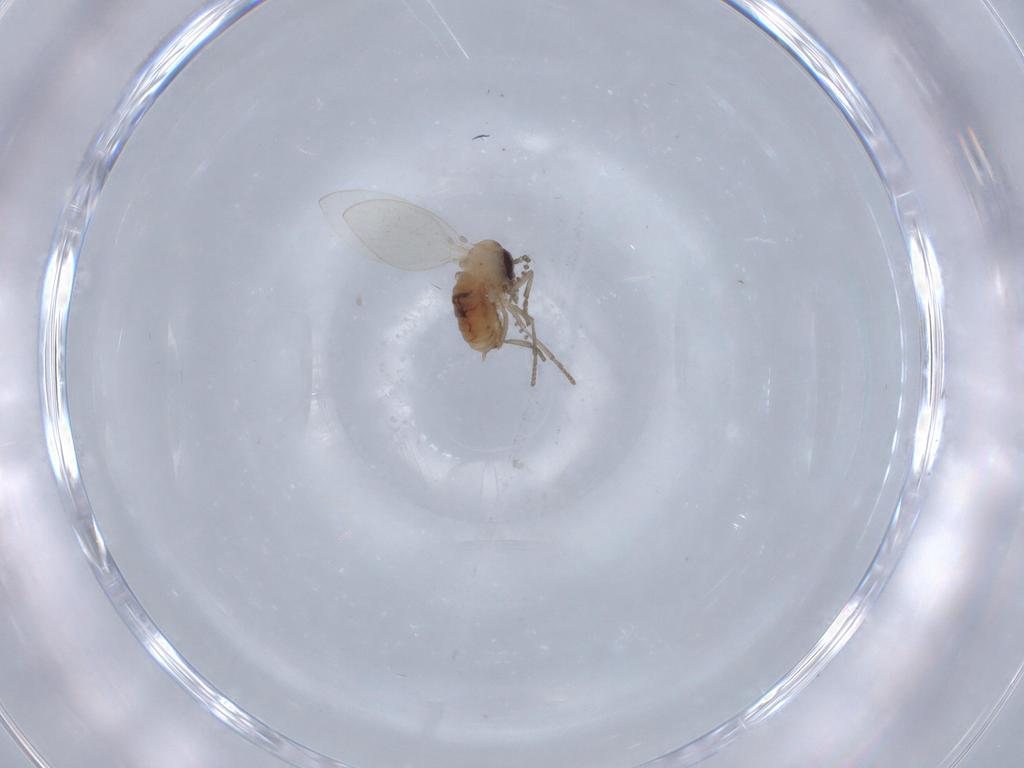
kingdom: Animalia
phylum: Arthropoda
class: Insecta
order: Diptera
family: Psychodidae
